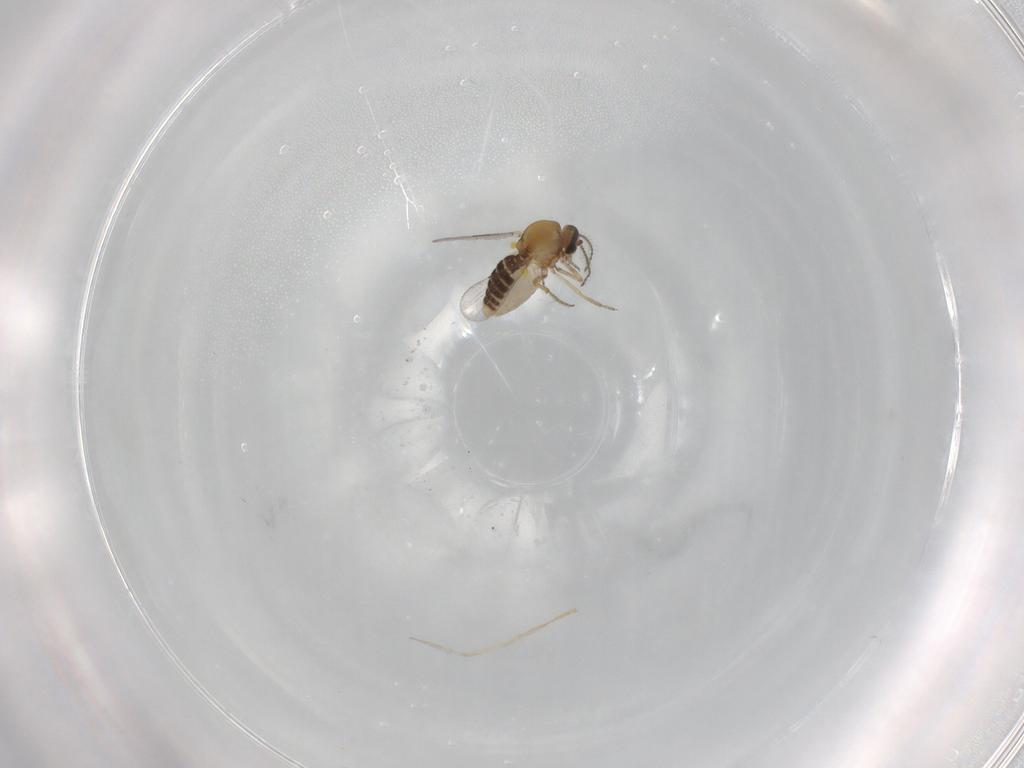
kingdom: Animalia
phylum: Arthropoda
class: Insecta
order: Diptera
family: Ceratopogonidae
